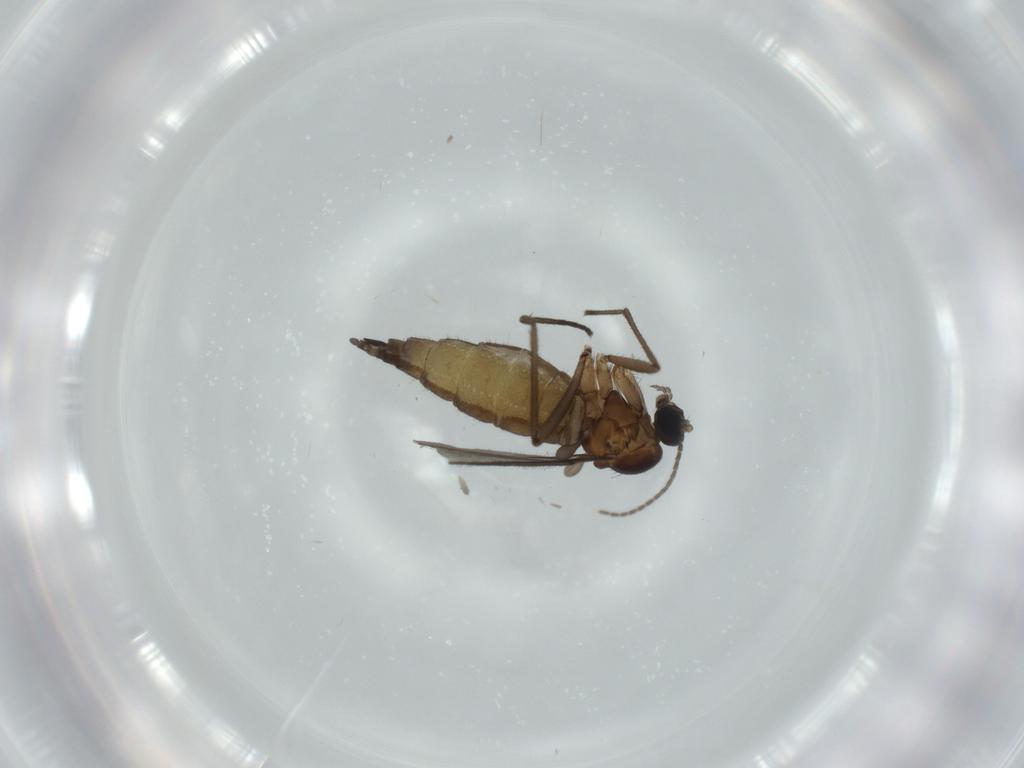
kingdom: Animalia
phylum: Arthropoda
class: Insecta
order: Diptera
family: Sciaridae
